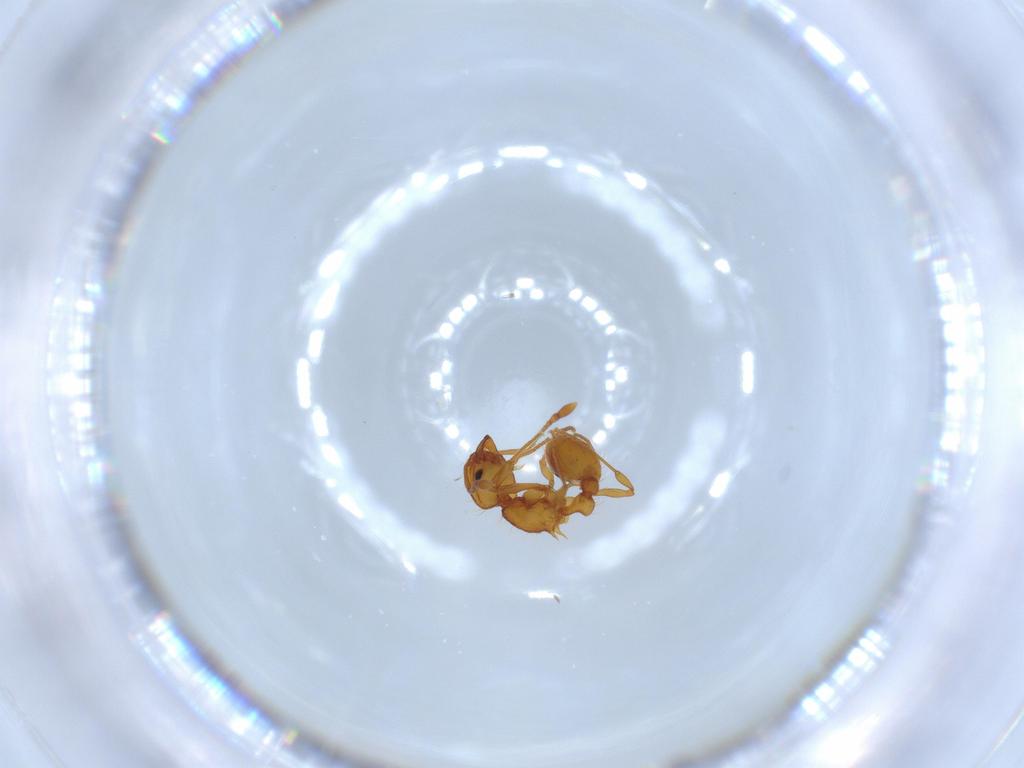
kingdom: Animalia
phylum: Arthropoda
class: Insecta
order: Hymenoptera
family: Formicidae
